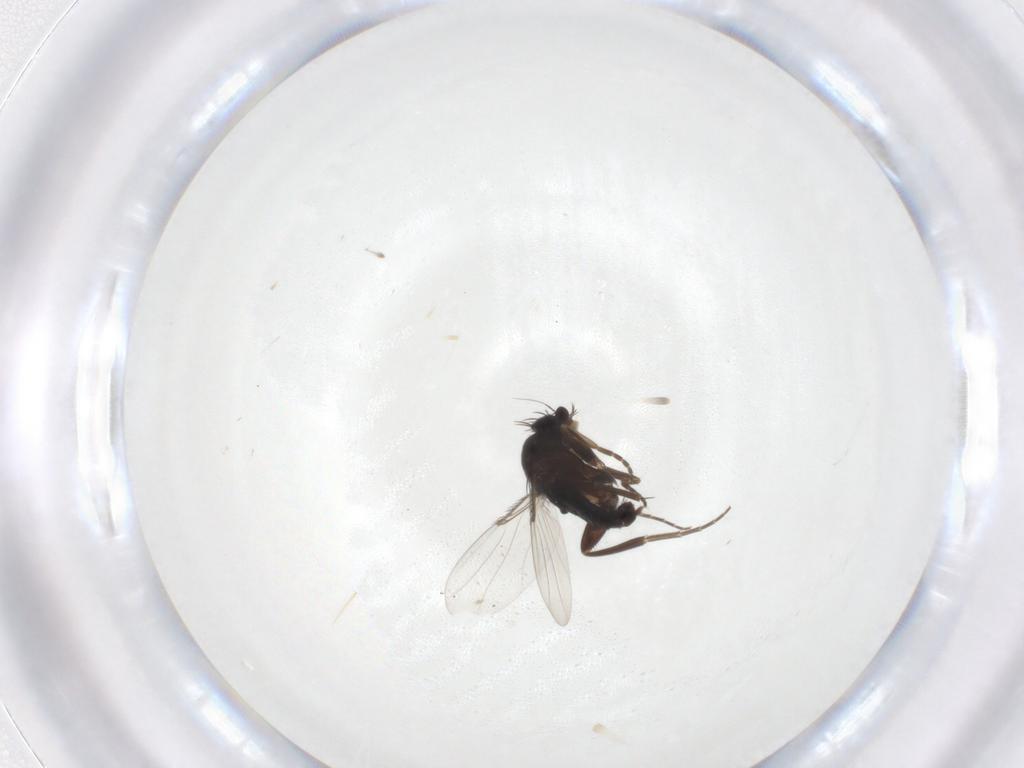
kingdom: Animalia
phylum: Arthropoda
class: Insecta
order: Diptera
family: Phoridae
